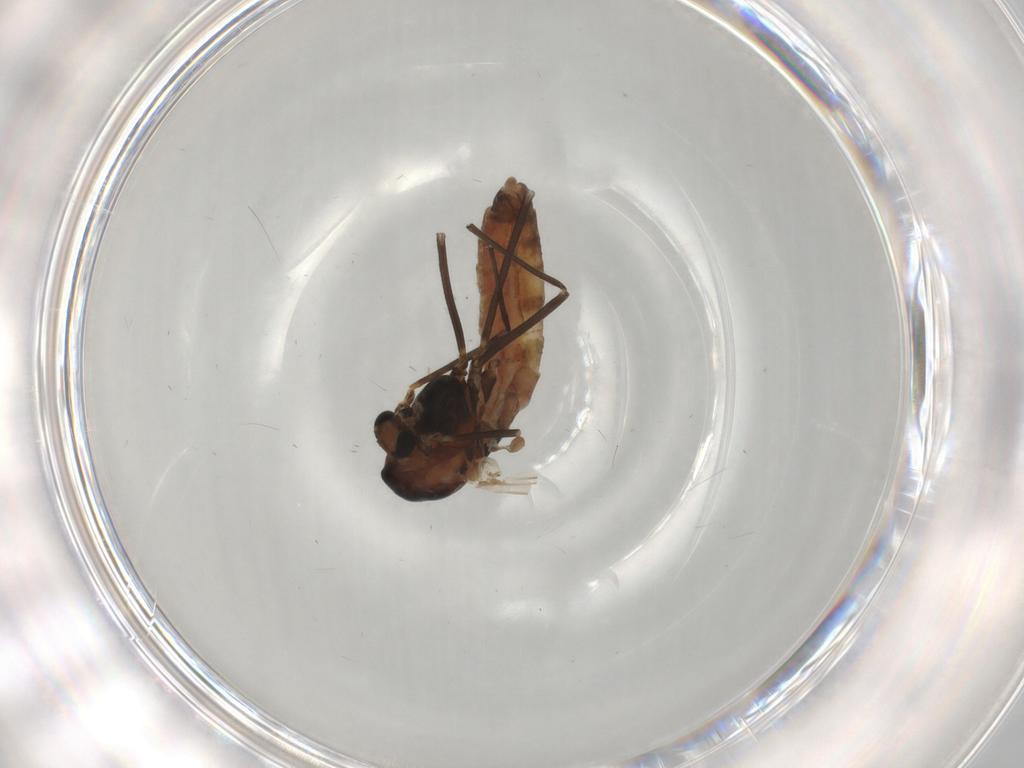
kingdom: Animalia
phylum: Arthropoda
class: Insecta
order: Diptera
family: Chironomidae
